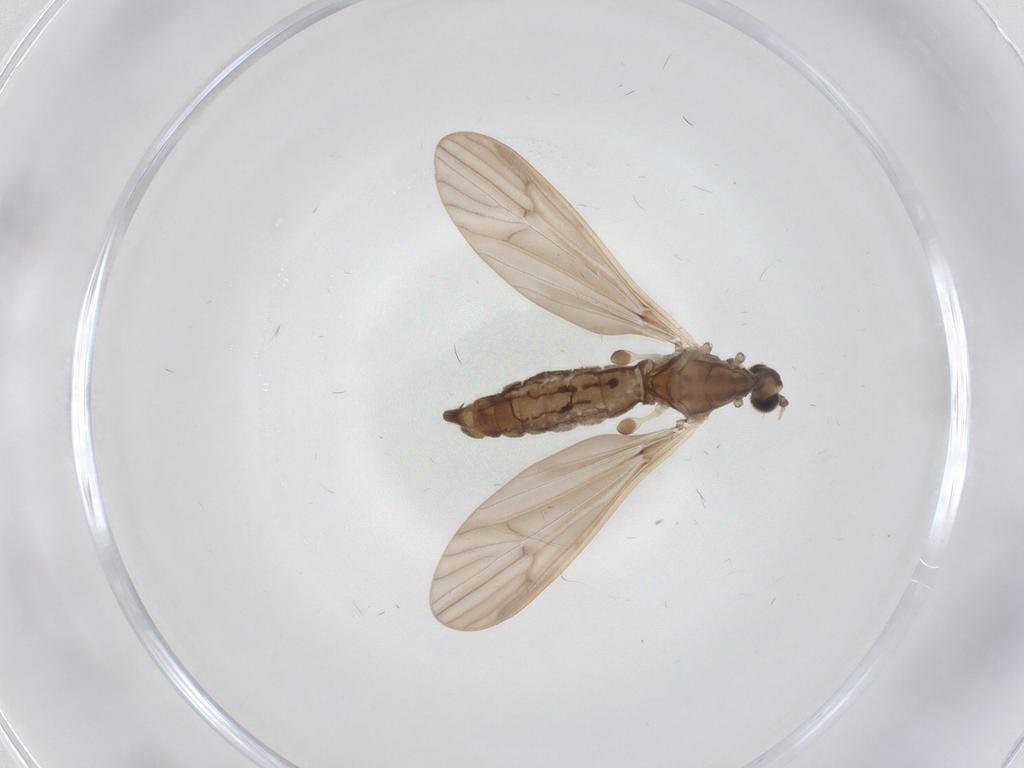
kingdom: Animalia
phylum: Arthropoda
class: Insecta
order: Diptera
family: Limoniidae
